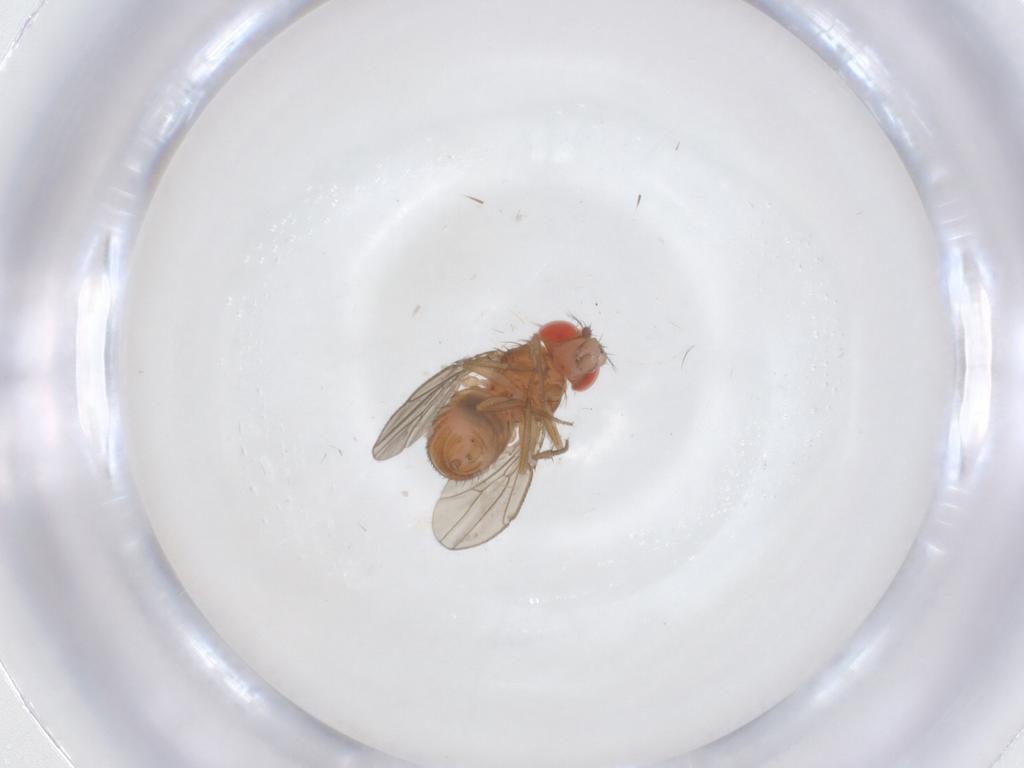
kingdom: Animalia
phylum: Arthropoda
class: Insecta
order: Diptera
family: Drosophilidae
